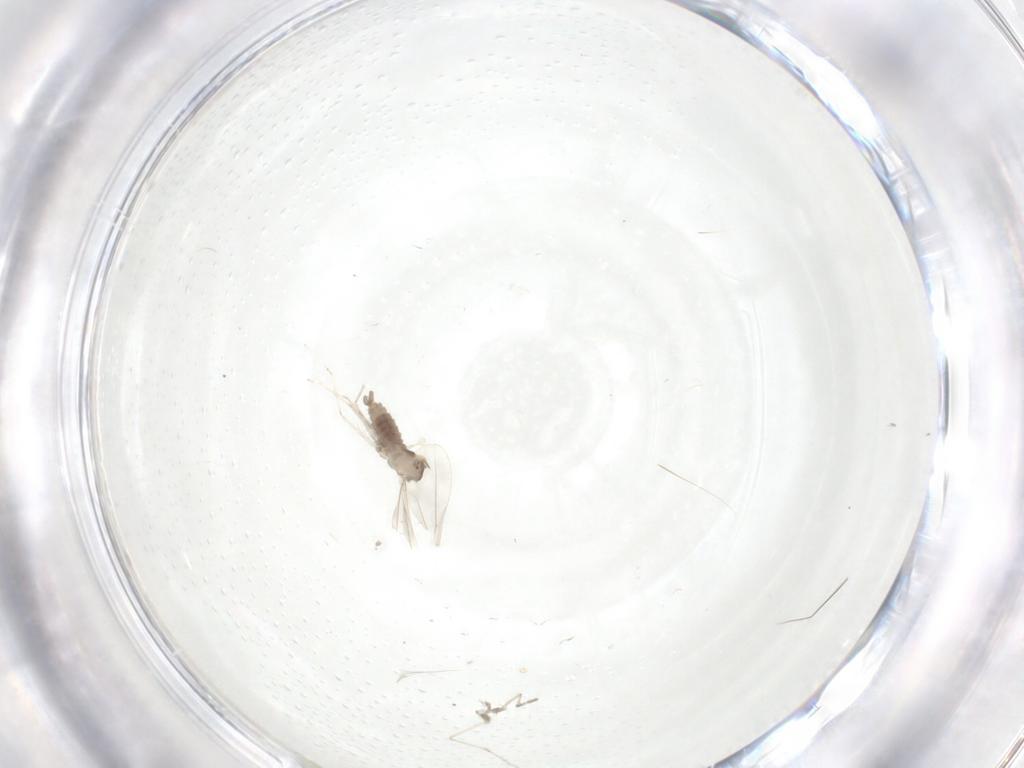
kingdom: Animalia
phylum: Arthropoda
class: Insecta
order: Diptera
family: Cecidomyiidae
